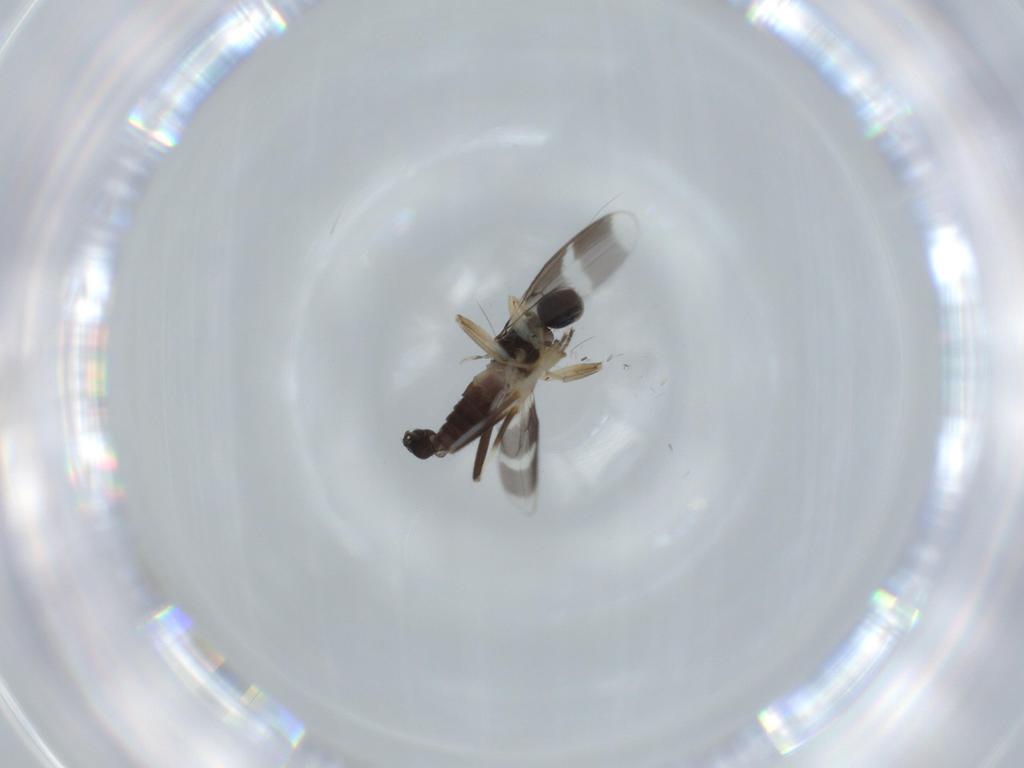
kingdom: Animalia
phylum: Arthropoda
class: Insecta
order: Diptera
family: Hybotidae
